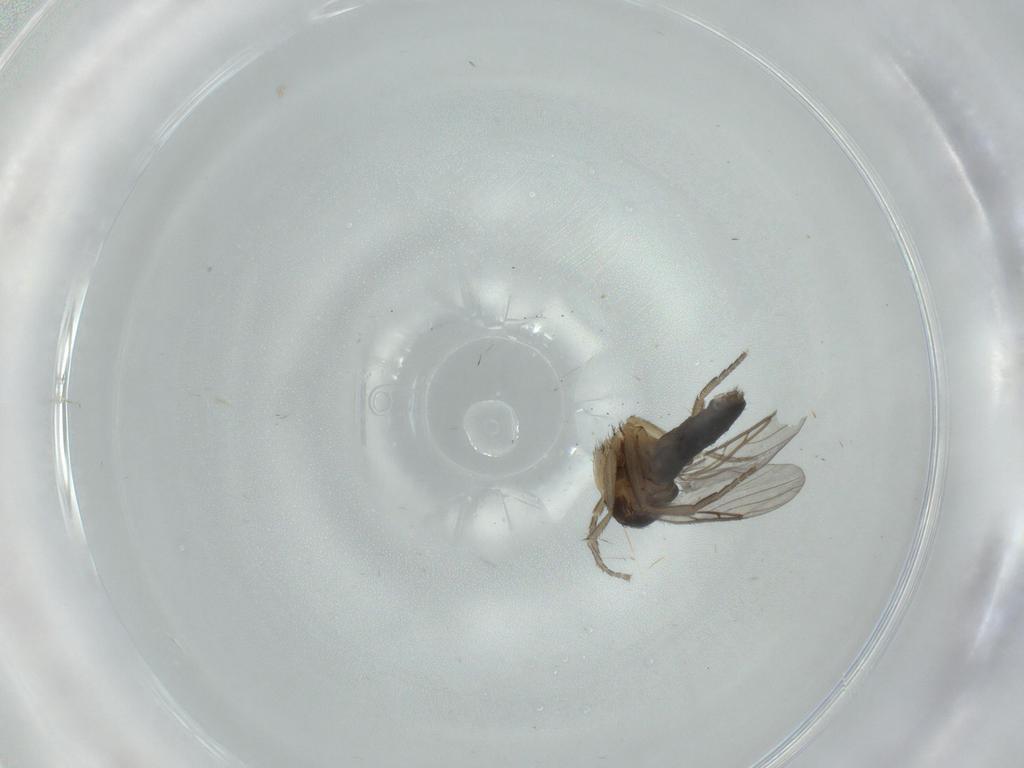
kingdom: Animalia
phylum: Arthropoda
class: Insecta
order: Diptera
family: Phoridae
